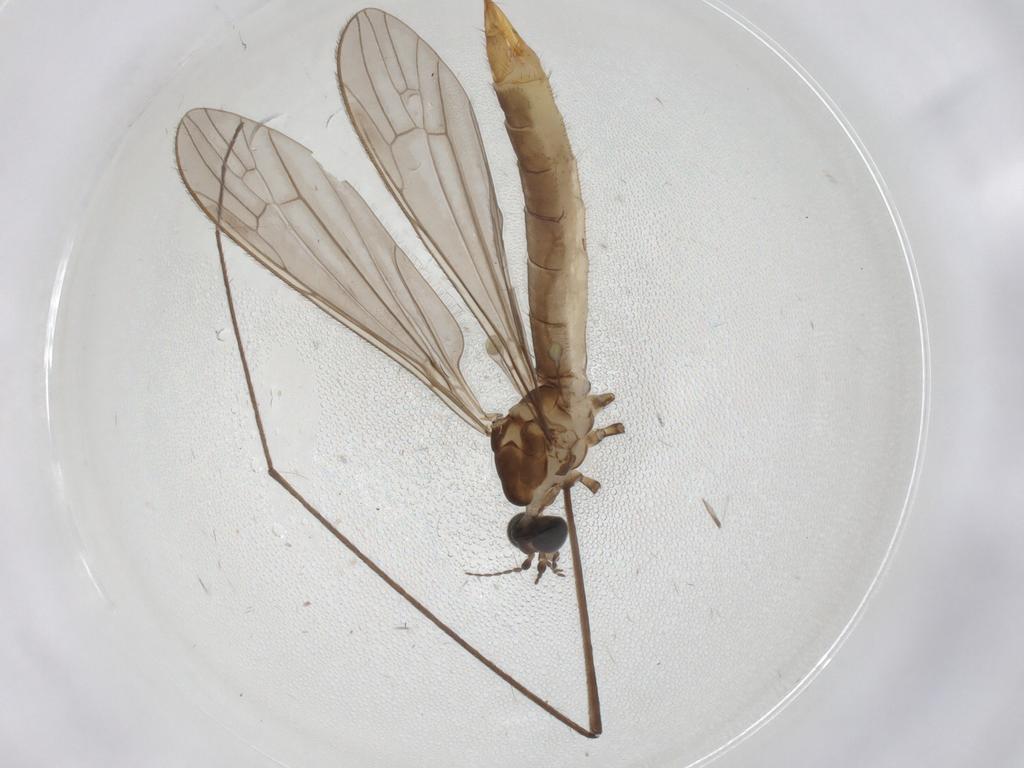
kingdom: Animalia
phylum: Arthropoda
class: Insecta
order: Diptera
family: Limoniidae
